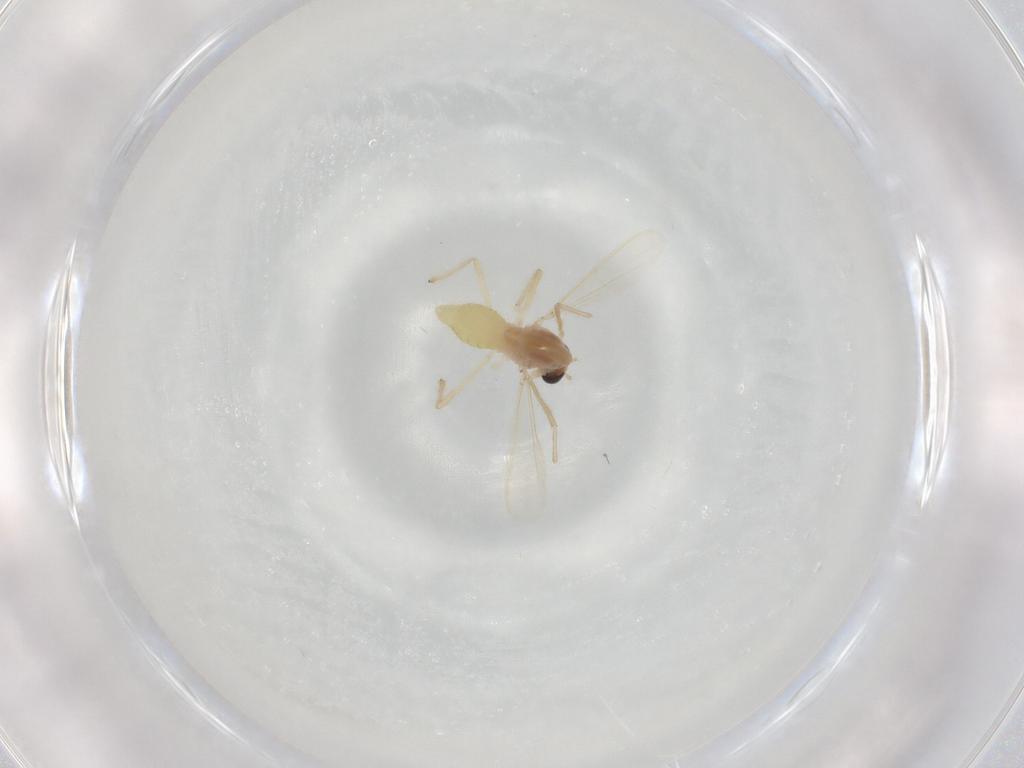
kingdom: Animalia
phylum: Arthropoda
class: Insecta
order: Diptera
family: Chironomidae
